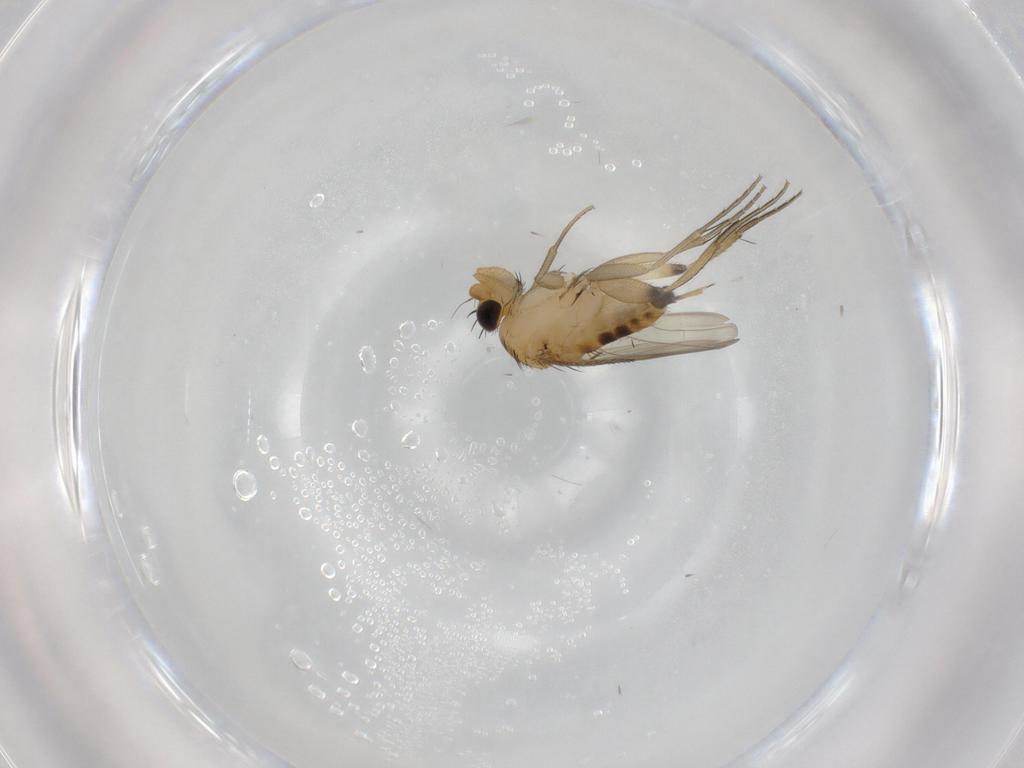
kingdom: Animalia
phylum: Arthropoda
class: Insecta
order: Diptera
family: Phoridae
